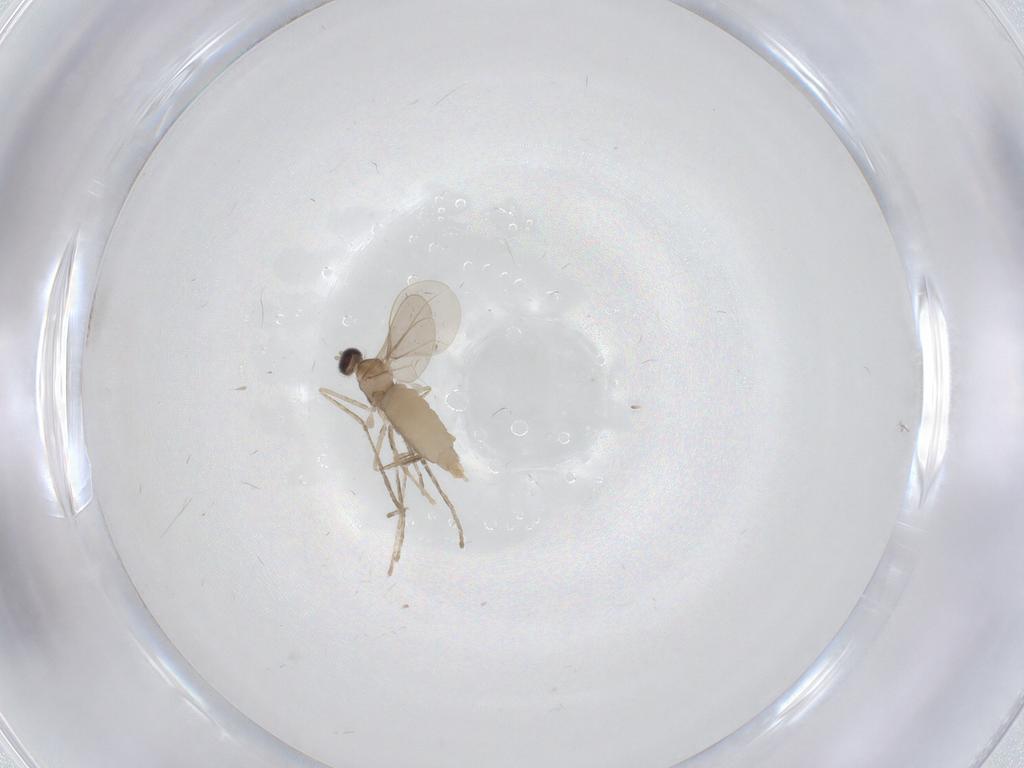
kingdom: Animalia
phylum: Arthropoda
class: Insecta
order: Diptera
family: Cecidomyiidae
